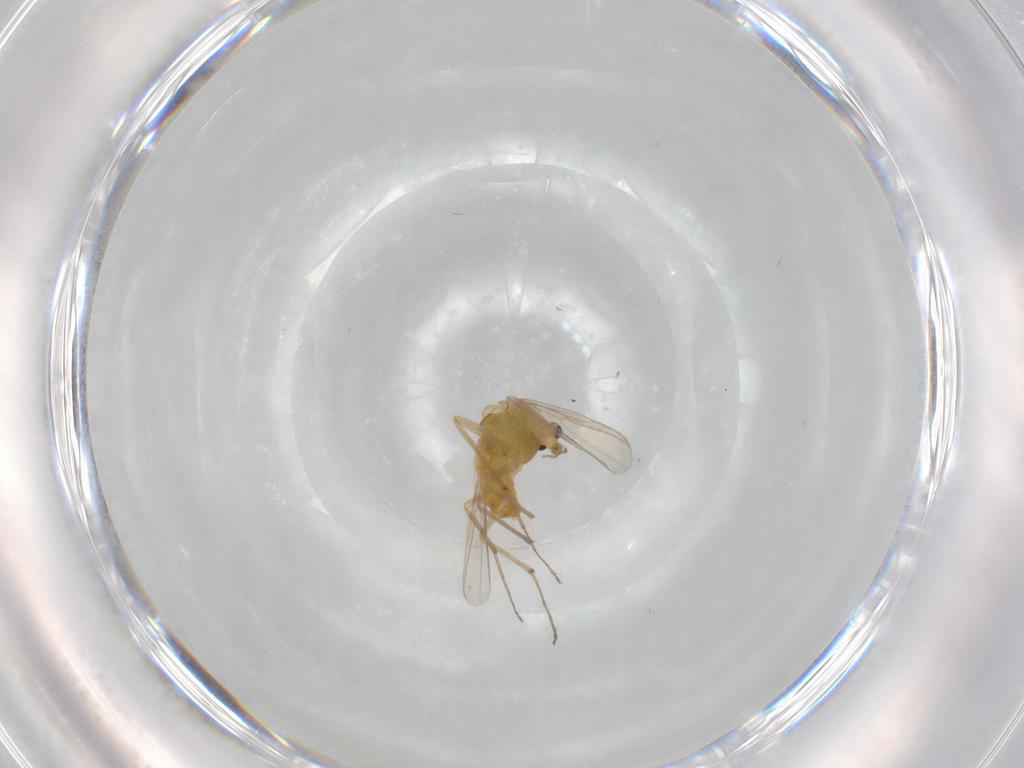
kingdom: Animalia
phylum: Arthropoda
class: Insecta
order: Diptera
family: Chironomidae
